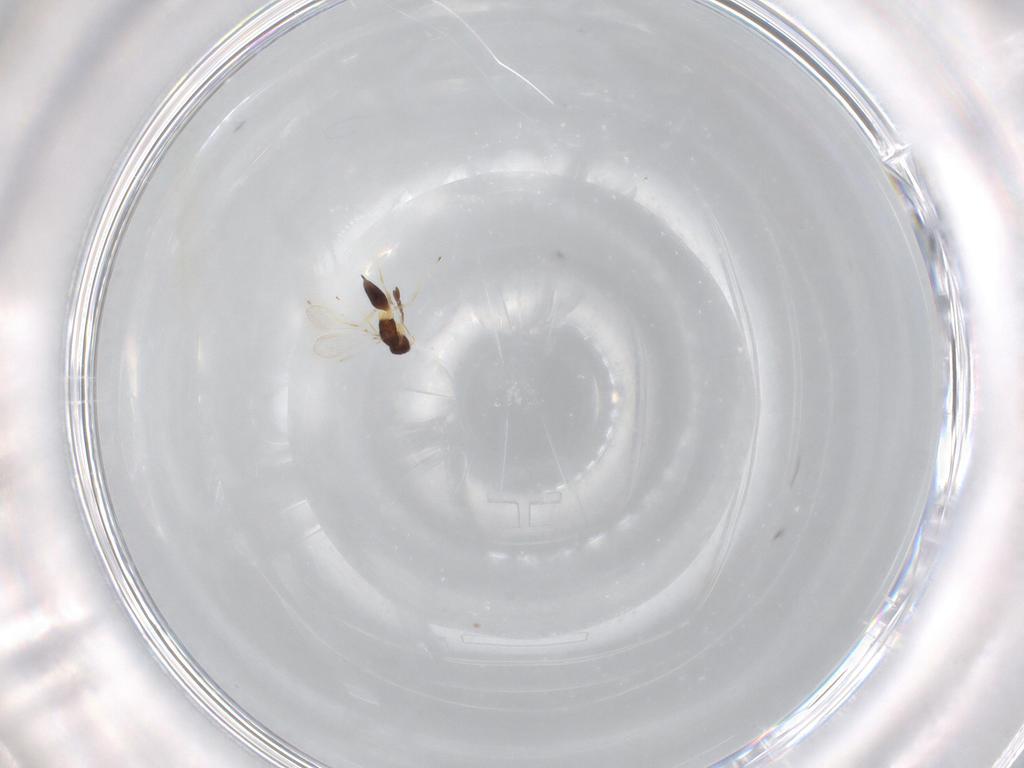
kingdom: Animalia
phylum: Arthropoda
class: Insecta
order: Hymenoptera
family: Mymaridae
